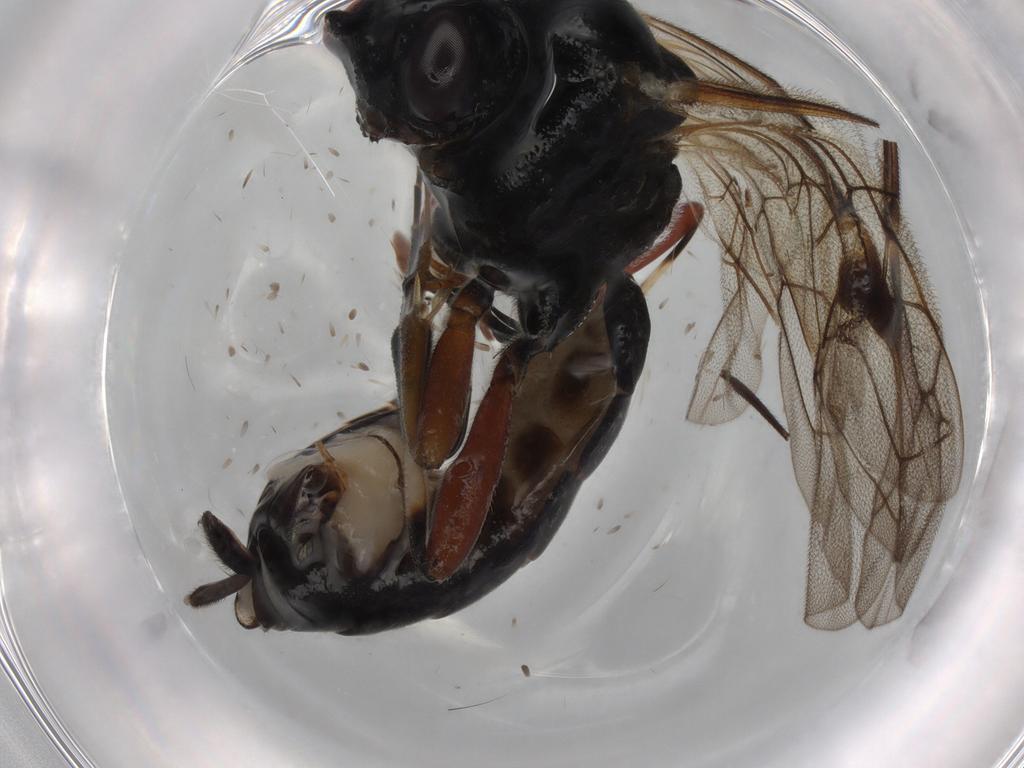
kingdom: Animalia
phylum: Arthropoda
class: Insecta
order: Hymenoptera
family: Ichneumonidae
